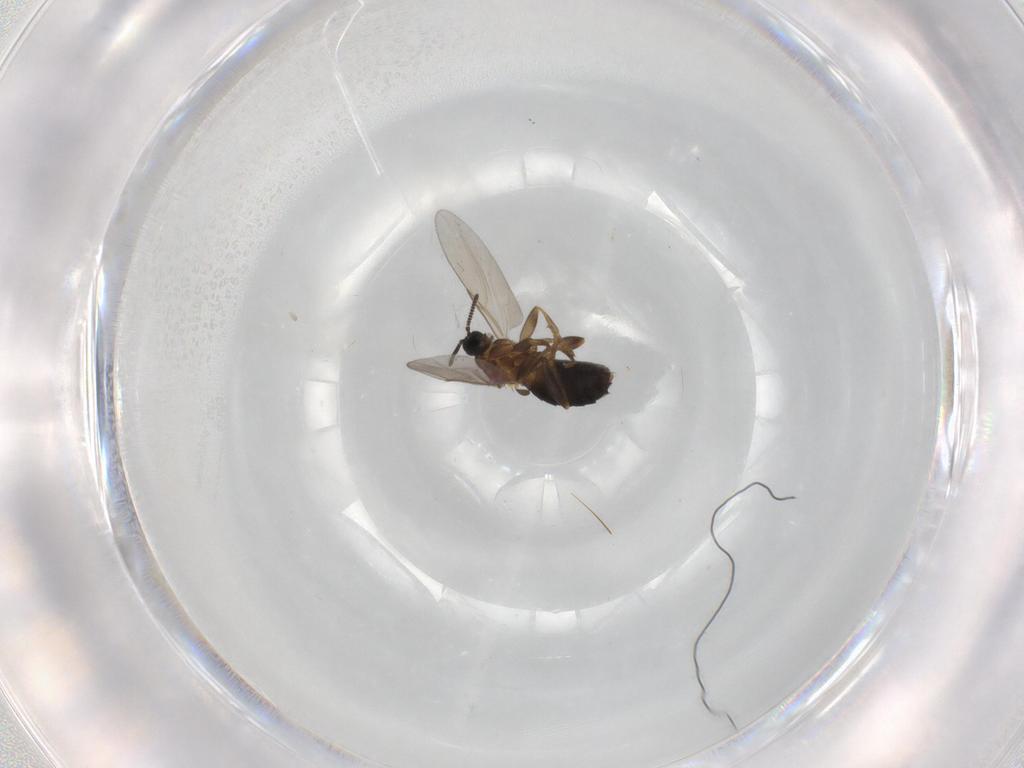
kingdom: Animalia
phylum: Arthropoda
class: Insecta
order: Diptera
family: Scatopsidae
